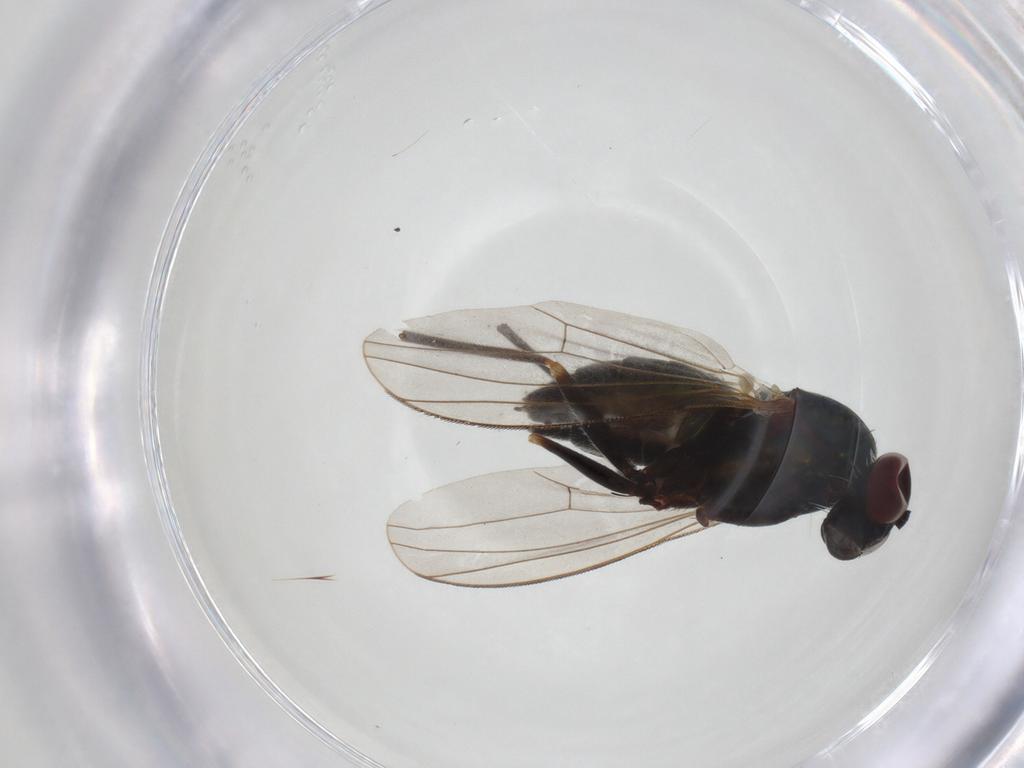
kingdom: Animalia
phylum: Arthropoda
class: Insecta
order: Diptera
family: Dolichopodidae
